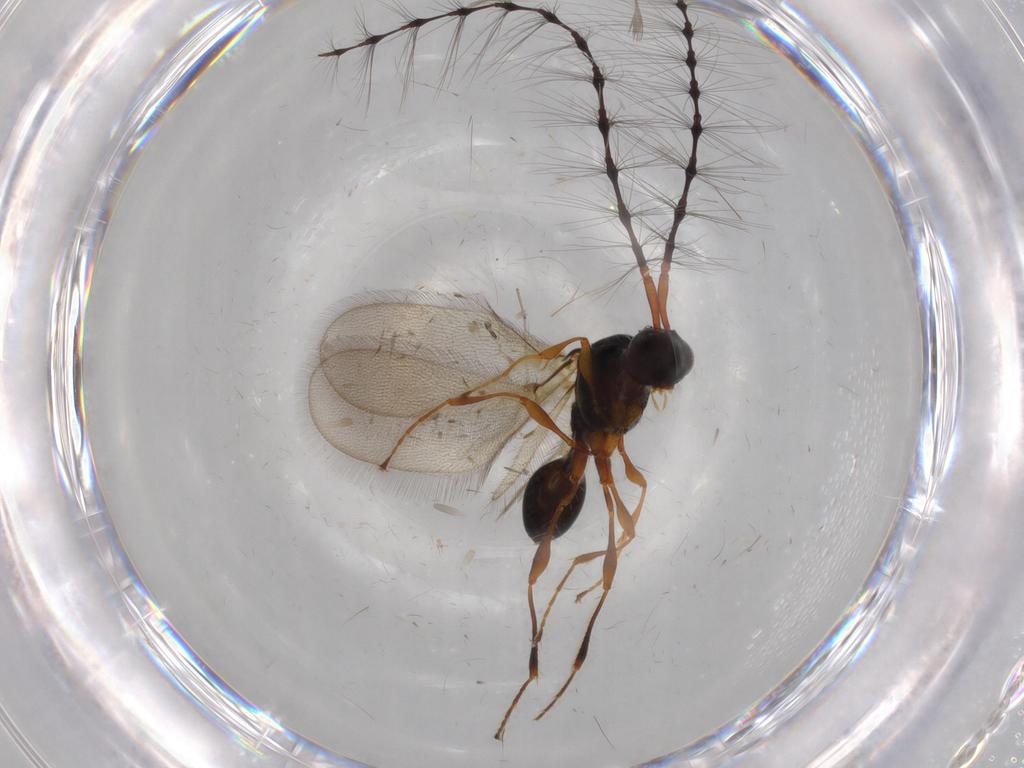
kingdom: Animalia
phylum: Arthropoda
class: Insecta
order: Hymenoptera
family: Diapriidae
